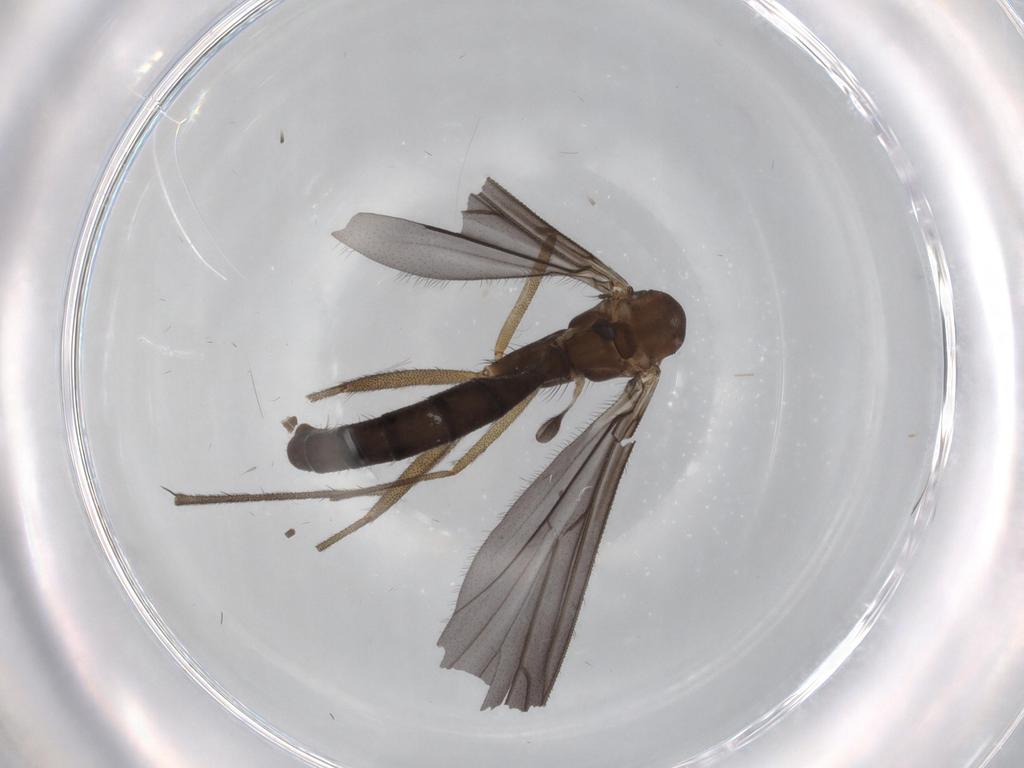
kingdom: Animalia
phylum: Arthropoda
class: Insecta
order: Diptera
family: Ditomyiidae
